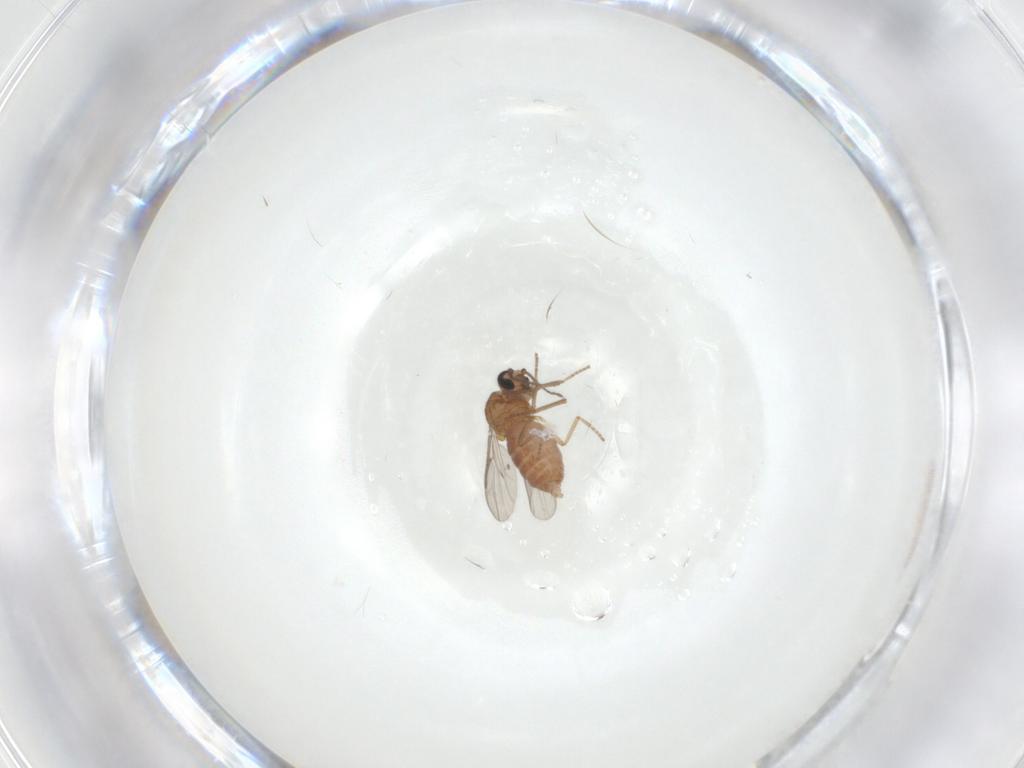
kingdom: Animalia
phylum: Arthropoda
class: Insecta
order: Diptera
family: Ceratopogonidae
